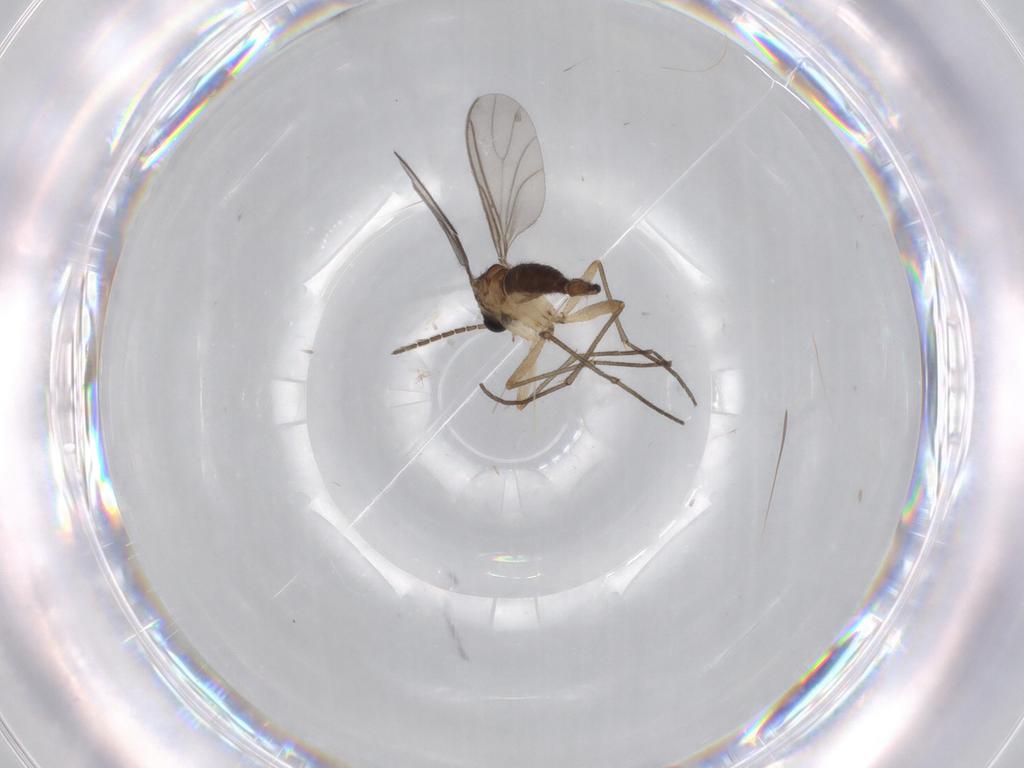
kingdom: Animalia
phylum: Arthropoda
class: Insecta
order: Diptera
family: Sciaridae
